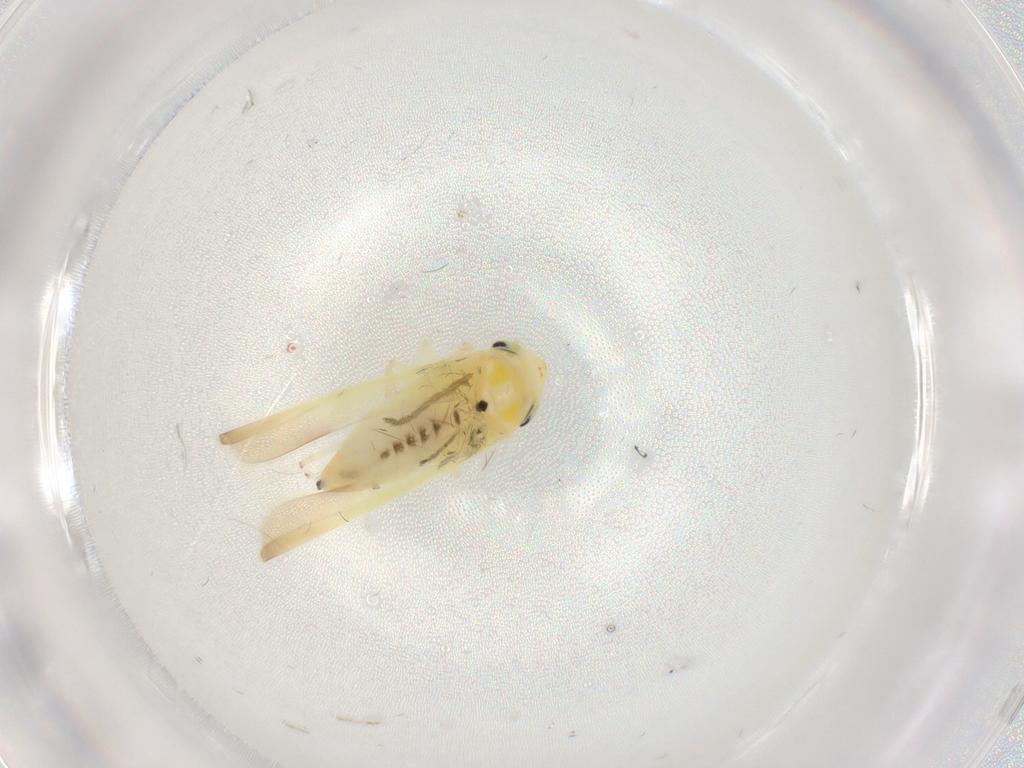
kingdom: Animalia
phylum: Arthropoda
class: Insecta
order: Hemiptera
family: Cicadellidae
